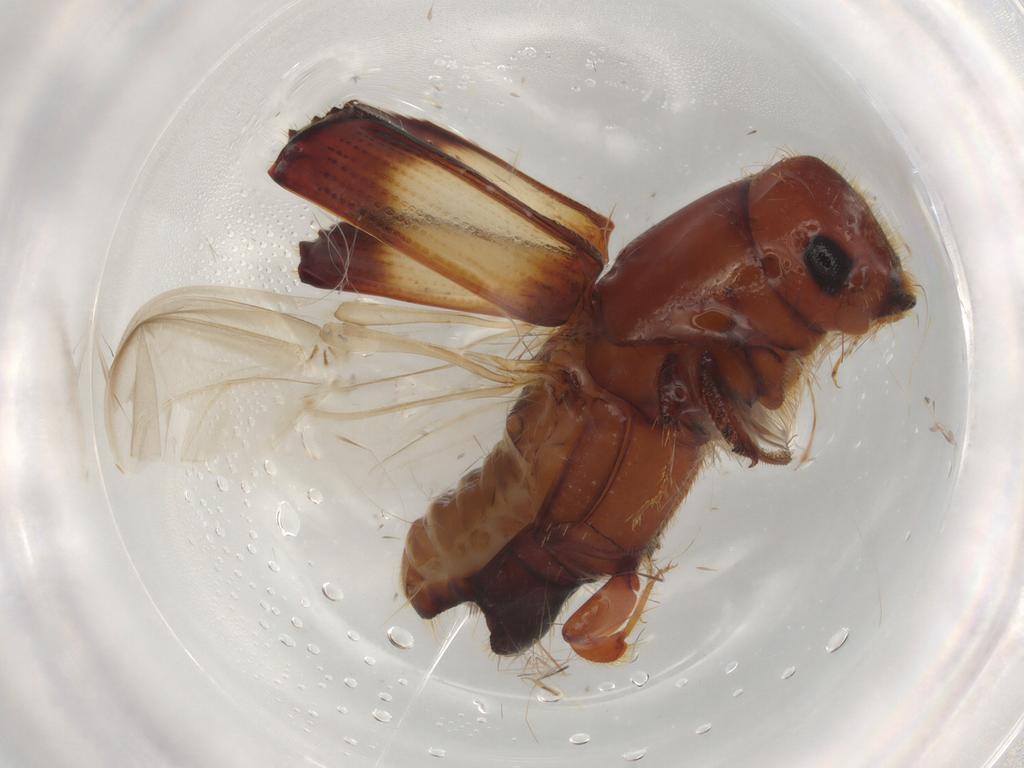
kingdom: Animalia
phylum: Arthropoda
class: Insecta
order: Coleoptera
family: Curculionidae
